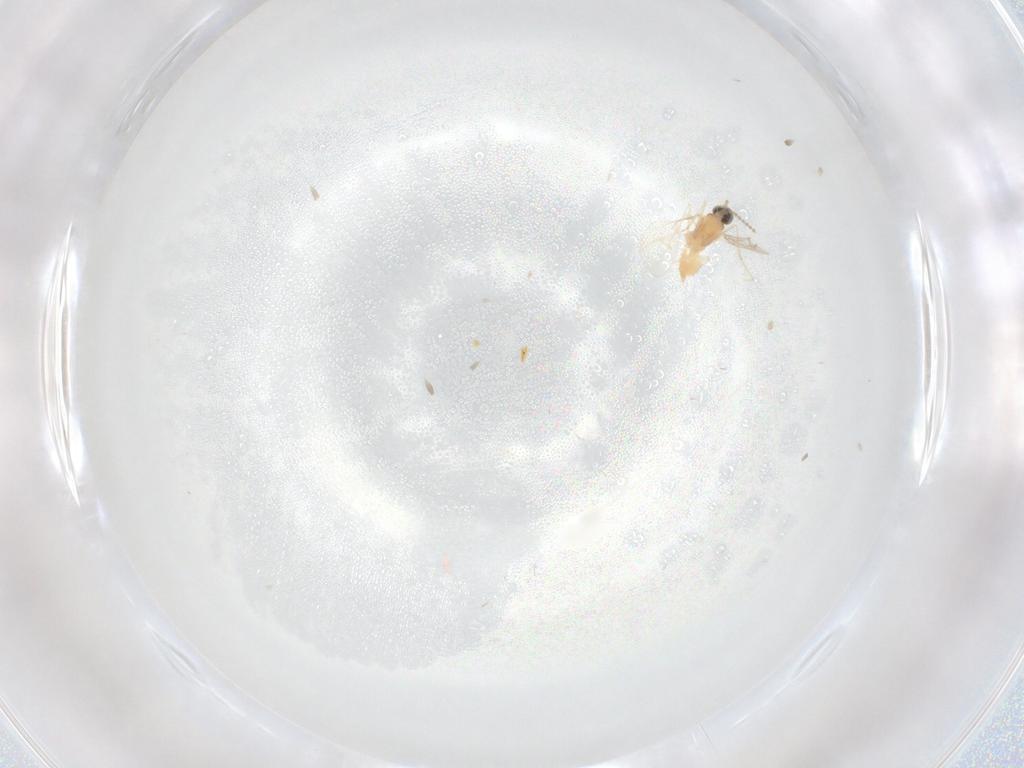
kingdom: Animalia
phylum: Arthropoda
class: Insecta
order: Diptera
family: Cecidomyiidae
